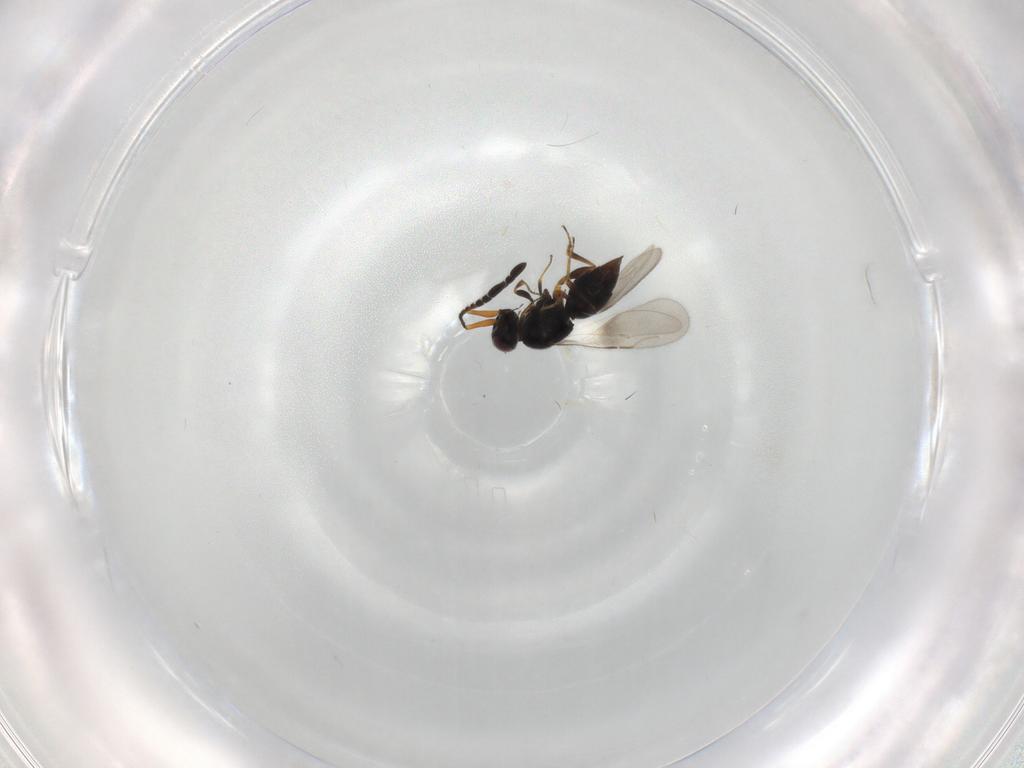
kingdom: Animalia
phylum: Arthropoda
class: Insecta
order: Hymenoptera
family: Ceraphronidae
